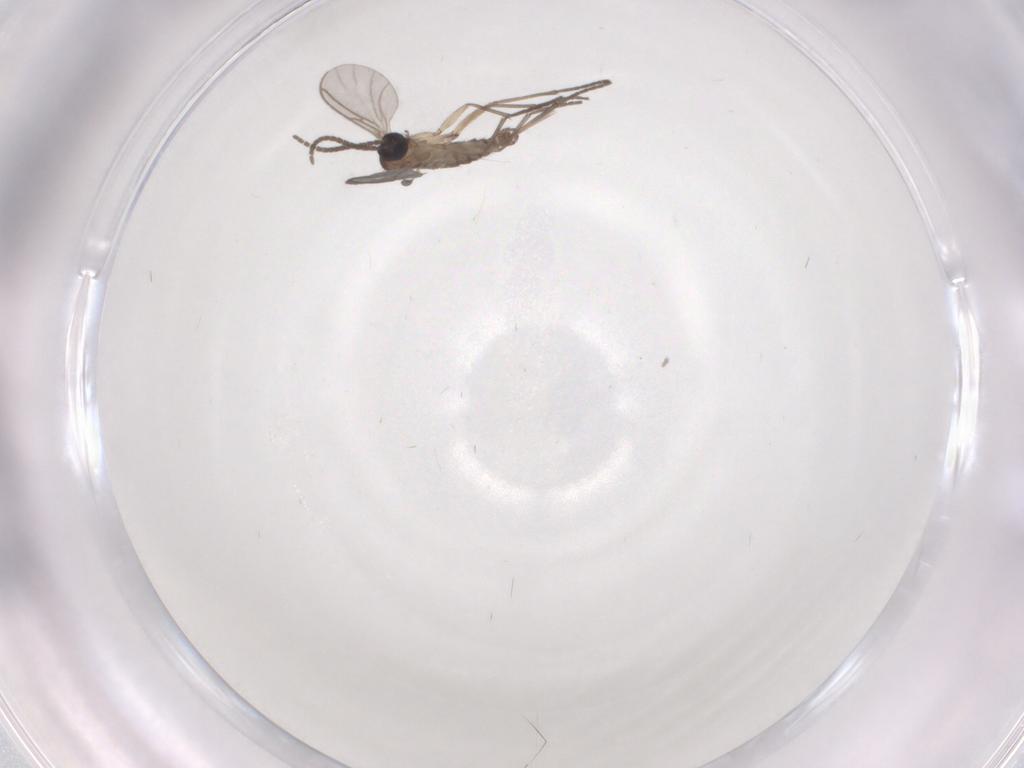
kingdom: Animalia
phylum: Arthropoda
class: Insecta
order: Diptera
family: Sciaridae
